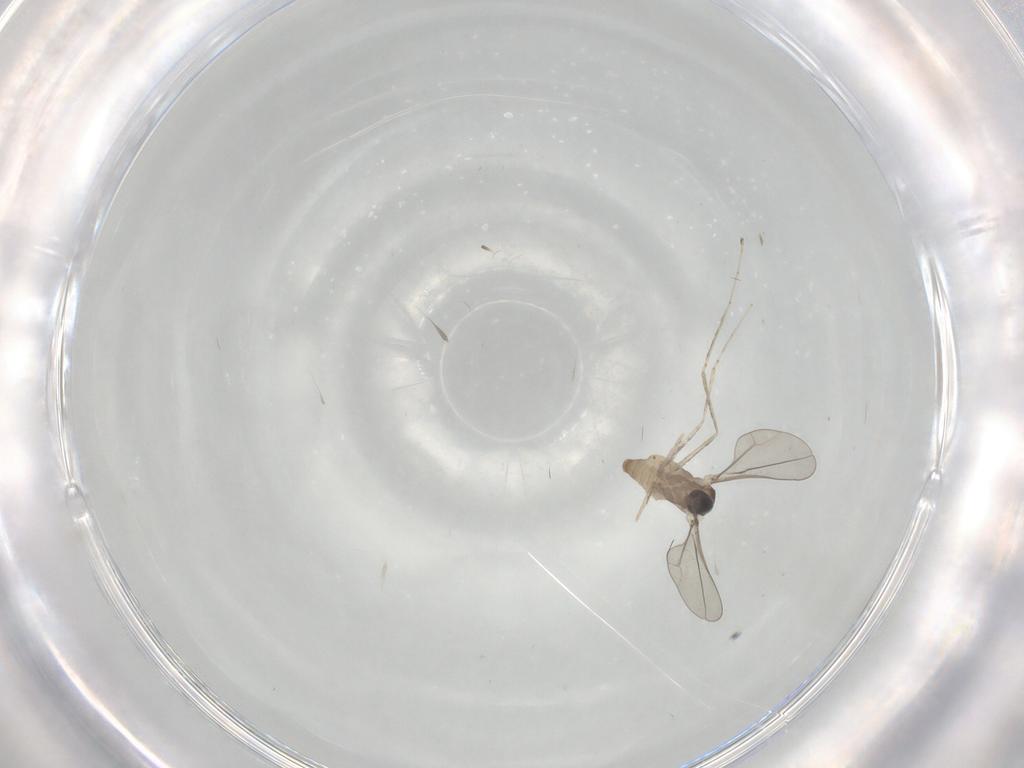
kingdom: Animalia
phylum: Arthropoda
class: Insecta
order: Diptera
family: Cecidomyiidae
